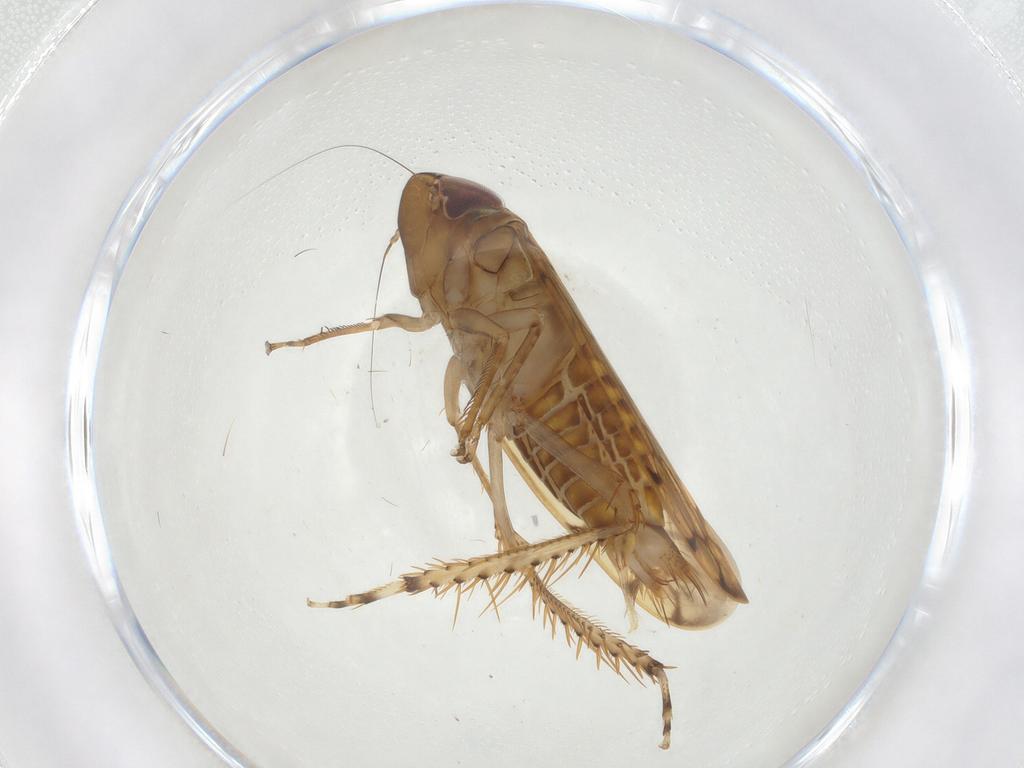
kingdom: Animalia
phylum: Arthropoda
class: Insecta
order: Hemiptera
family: Cicadellidae
